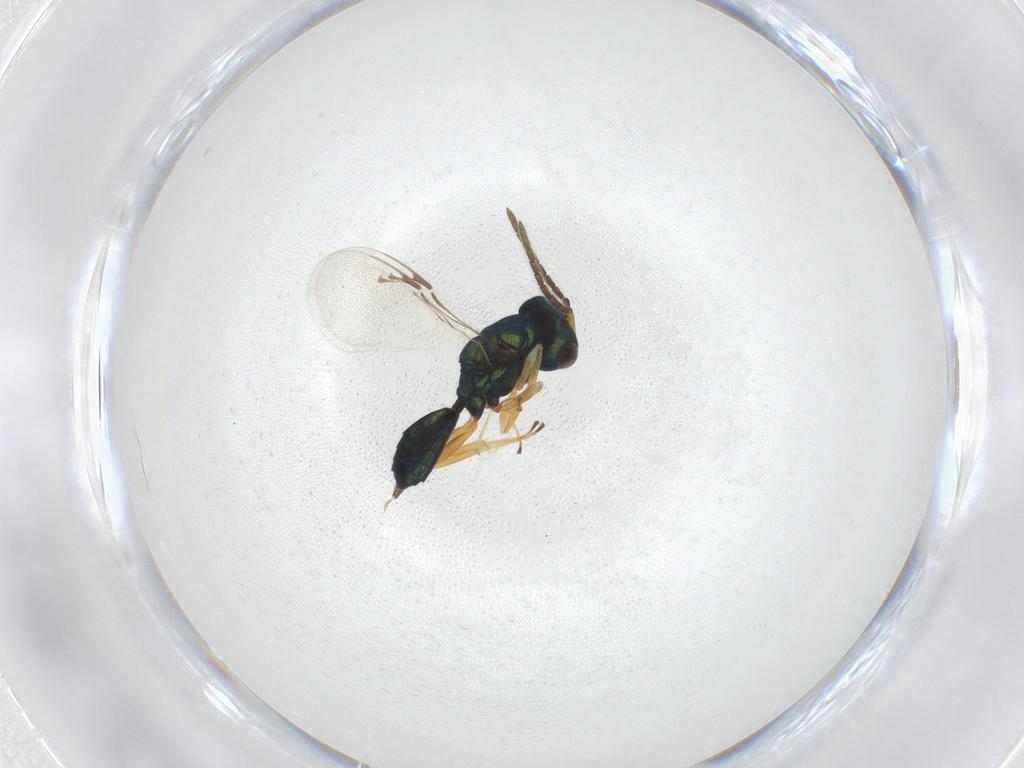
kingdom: Animalia
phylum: Arthropoda
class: Insecta
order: Hymenoptera
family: Pteromalidae
